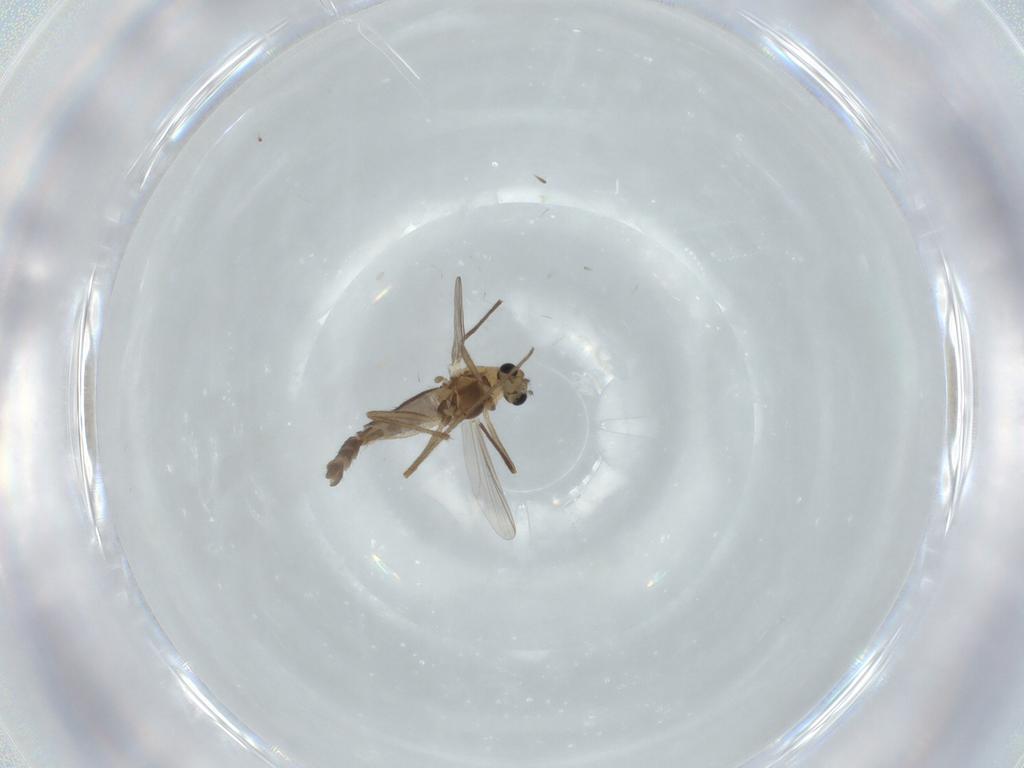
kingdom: Animalia
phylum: Arthropoda
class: Insecta
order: Diptera
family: Chironomidae
